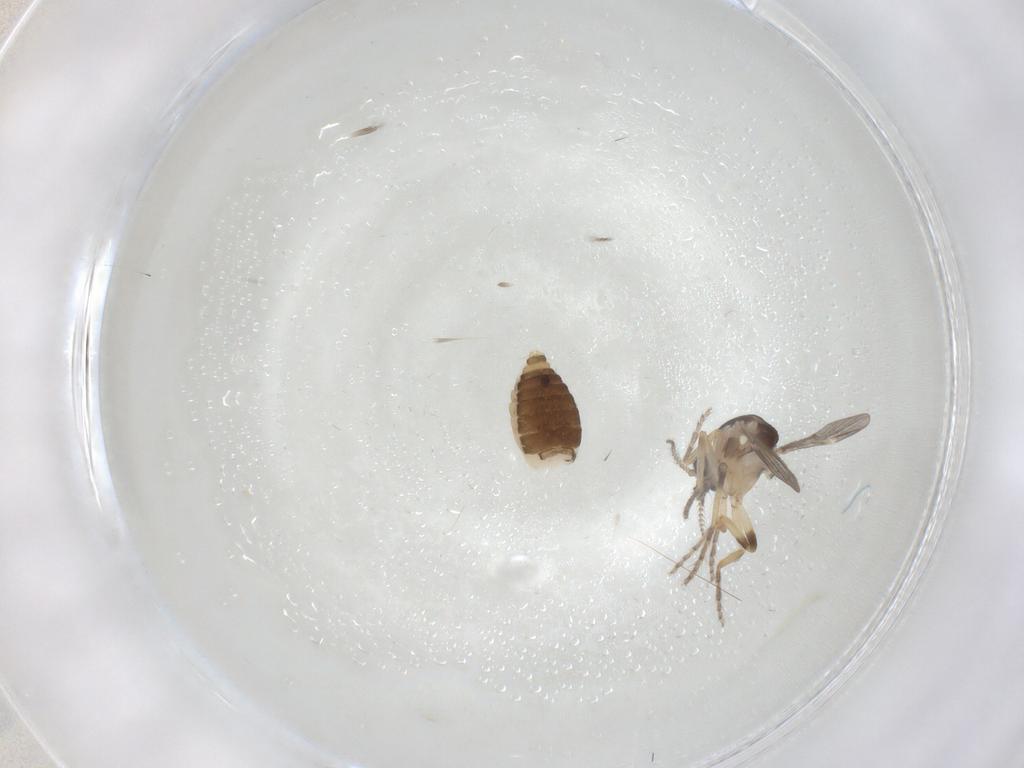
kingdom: Animalia
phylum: Arthropoda
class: Insecta
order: Diptera
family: Ceratopogonidae
